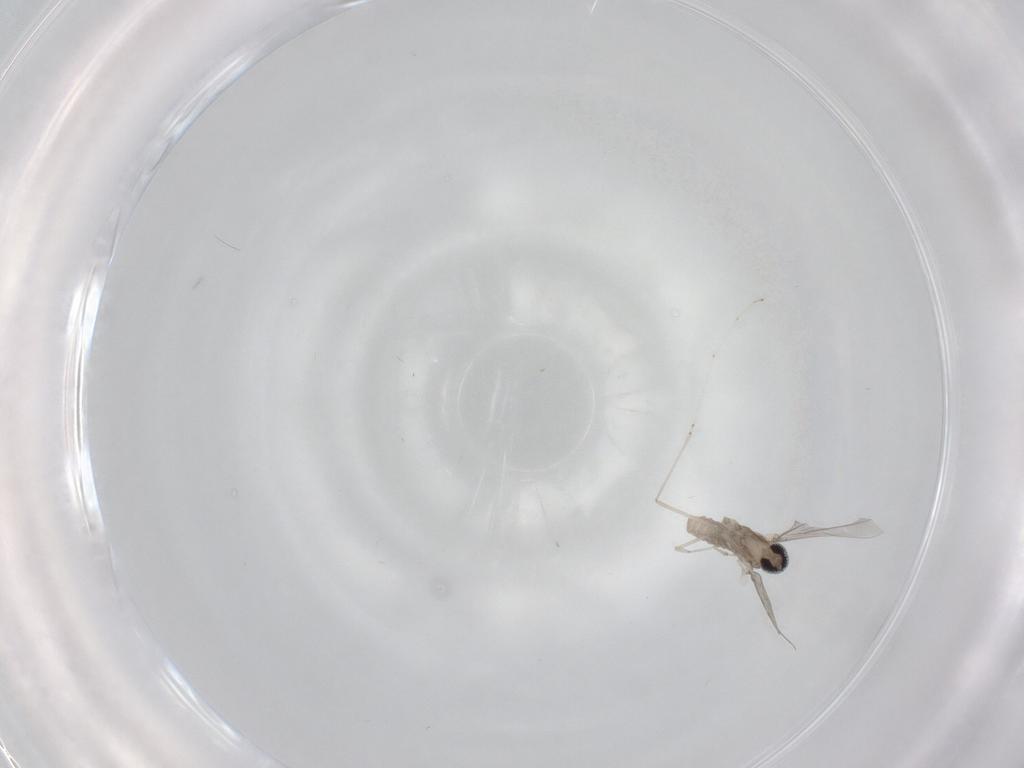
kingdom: Animalia
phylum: Arthropoda
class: Insecta
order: Diptera
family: Cecidomyiidae
